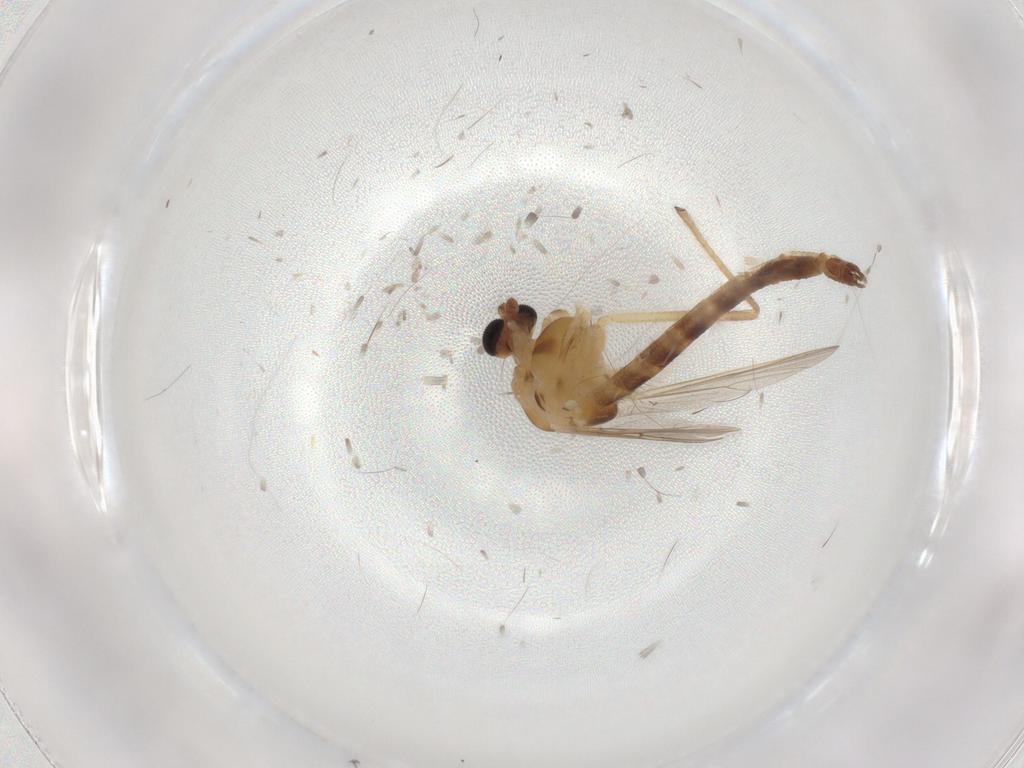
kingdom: Animalia
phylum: Arthropoda
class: Insecta
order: Diptera
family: Chironomidae
